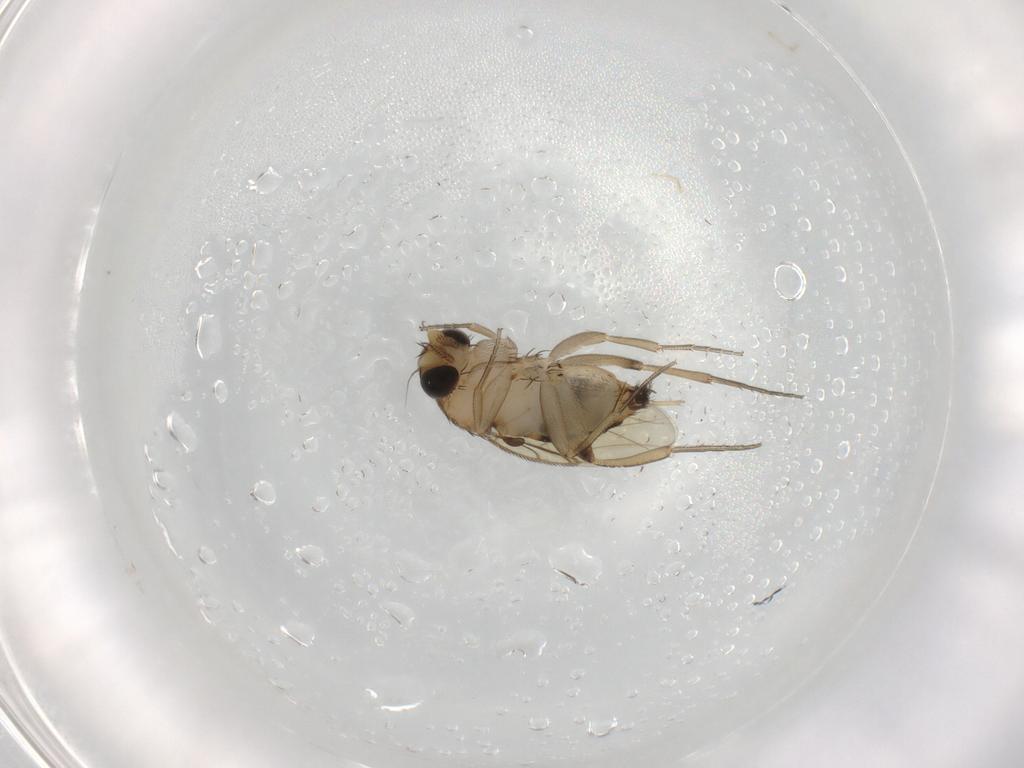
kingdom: Animalia
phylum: Arthropoda
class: Insecta
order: Diptera
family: Phoridae
